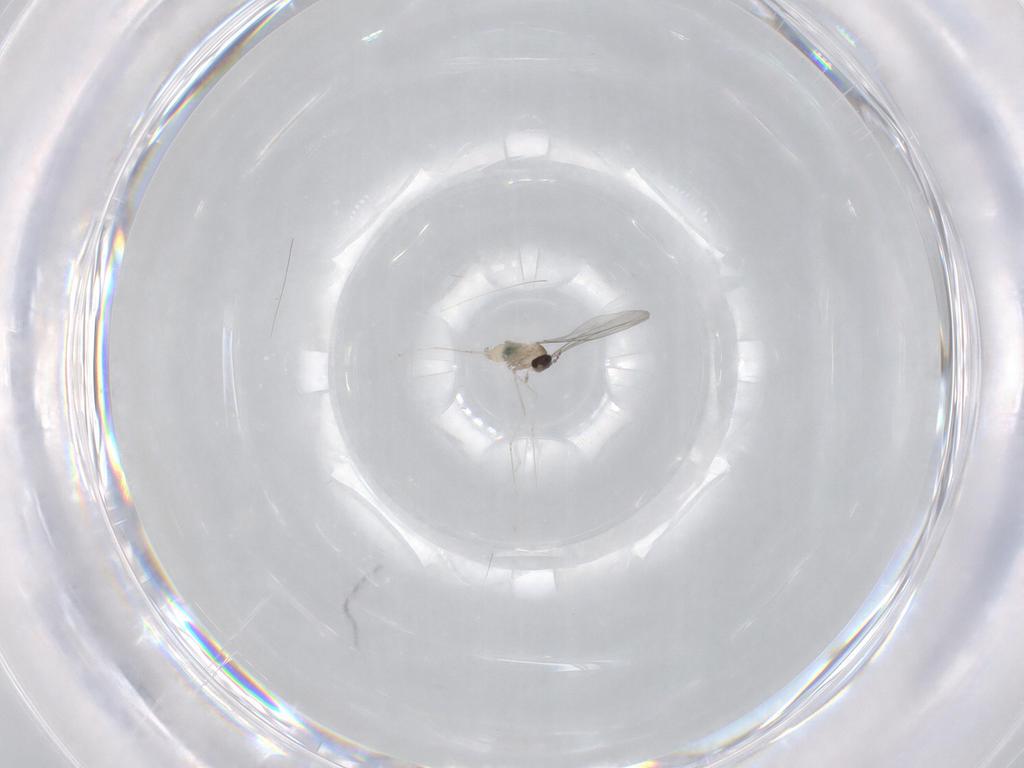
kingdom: Animalia
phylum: Arthropoda
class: Insecta
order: Diptera
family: Cecidomyiidae
